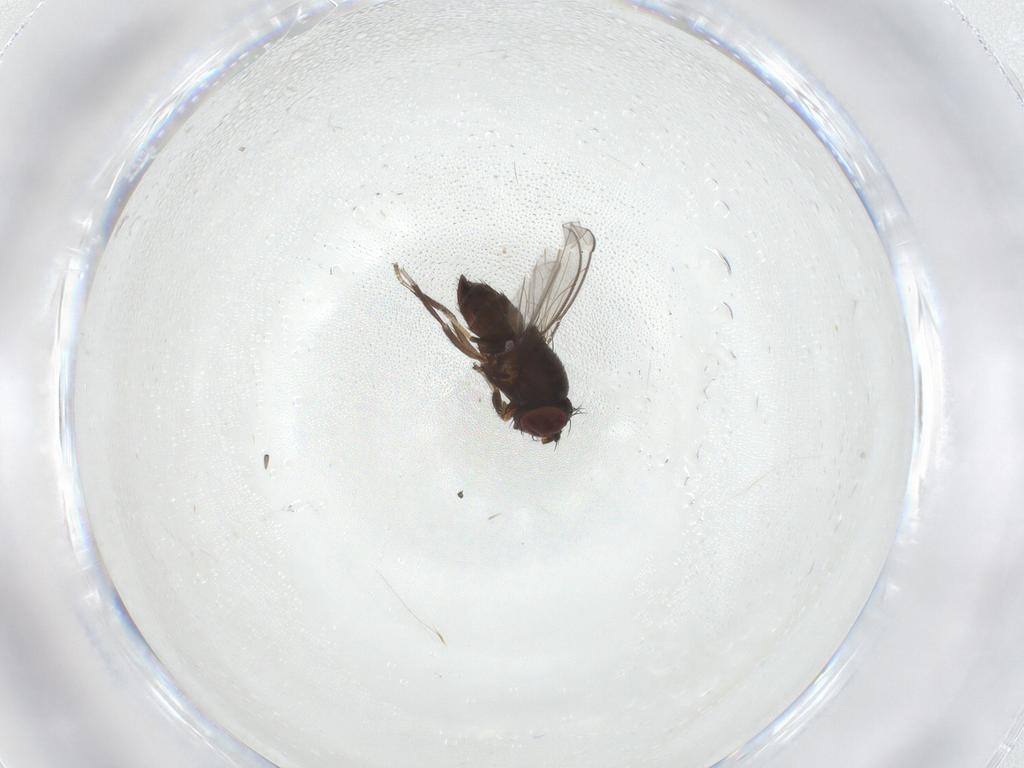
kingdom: Animalia
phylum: Arthropoda
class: Insecta
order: Diptera
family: Ephydridae
